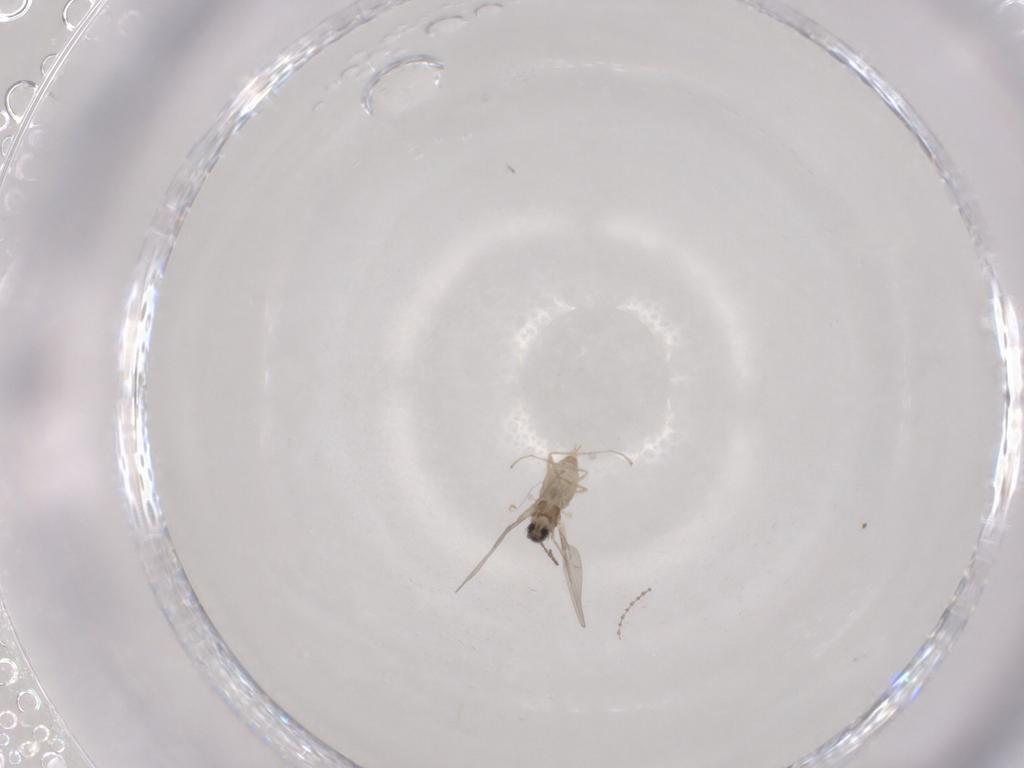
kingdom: Animalia
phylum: Arthropoda
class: Insecta
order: Diptera
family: Cecidomyiidae
